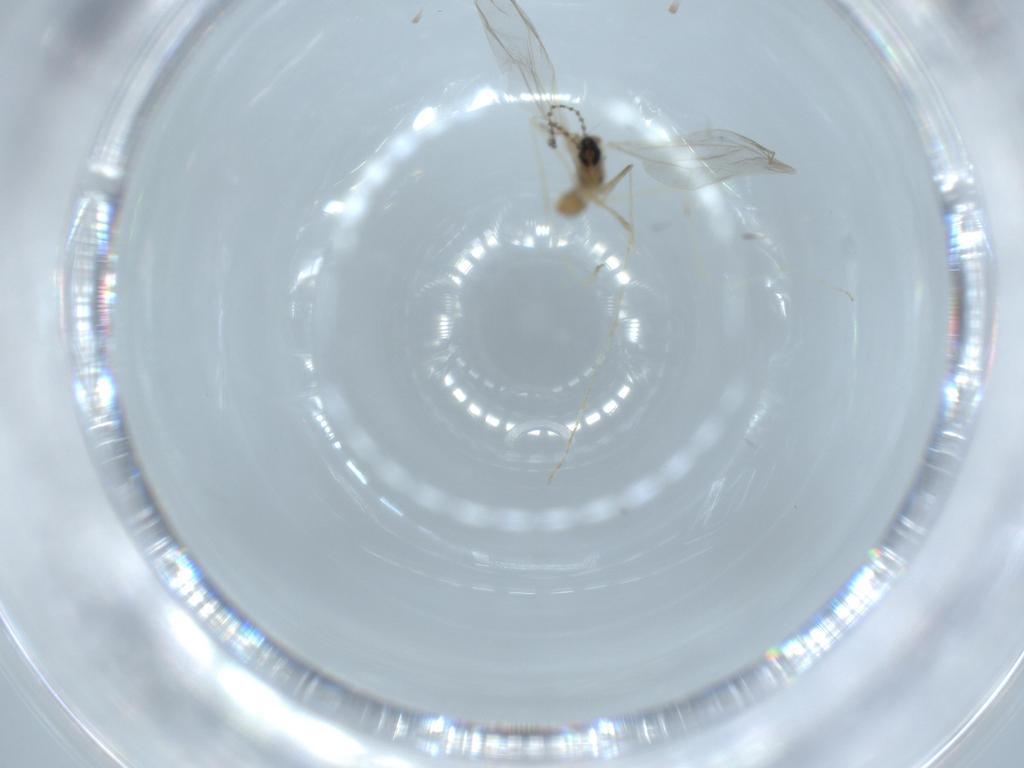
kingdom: Animalia
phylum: Arthropoda
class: Insecta
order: Diptera
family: Cecidomyiidae
